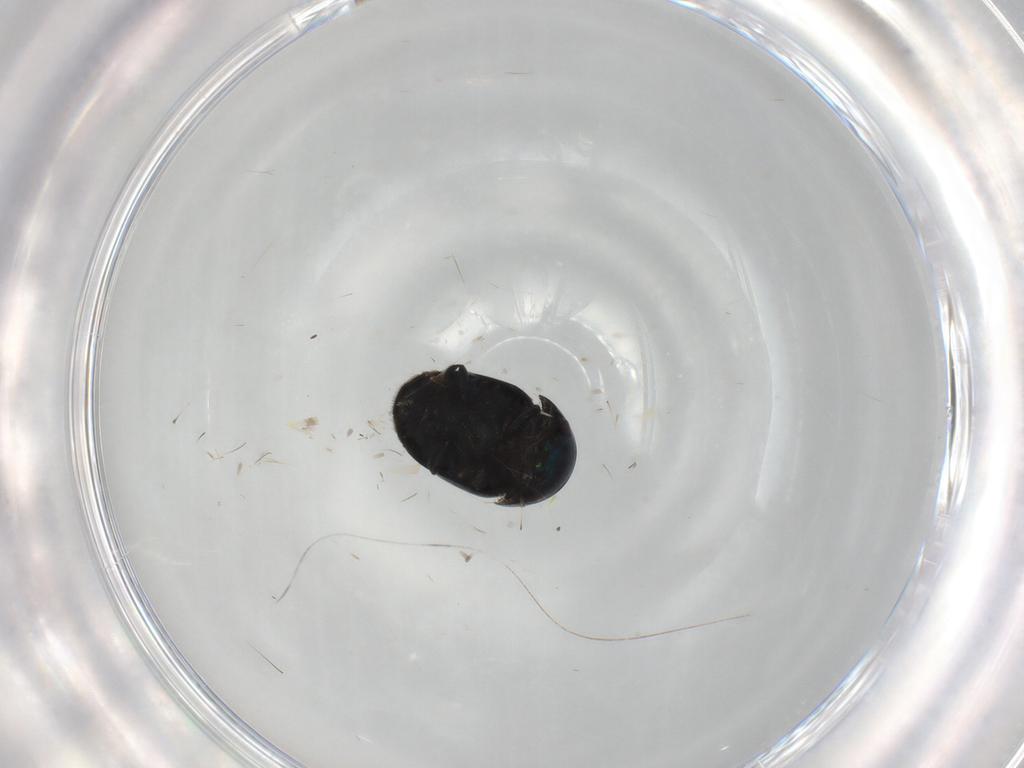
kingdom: Animalia
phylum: Arthropoda
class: Insecta
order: Coleoptera
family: Cybocephalidae
